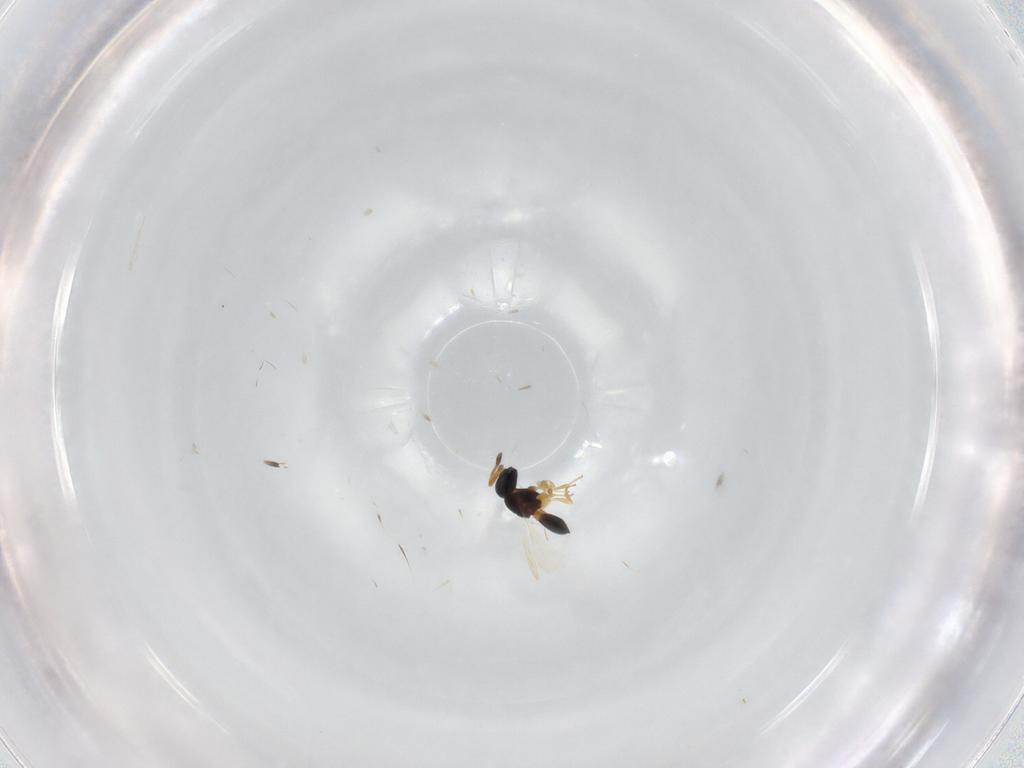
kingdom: Animalia
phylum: Arthropoda
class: Insecta
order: Hymenoptera
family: Scelionidae
